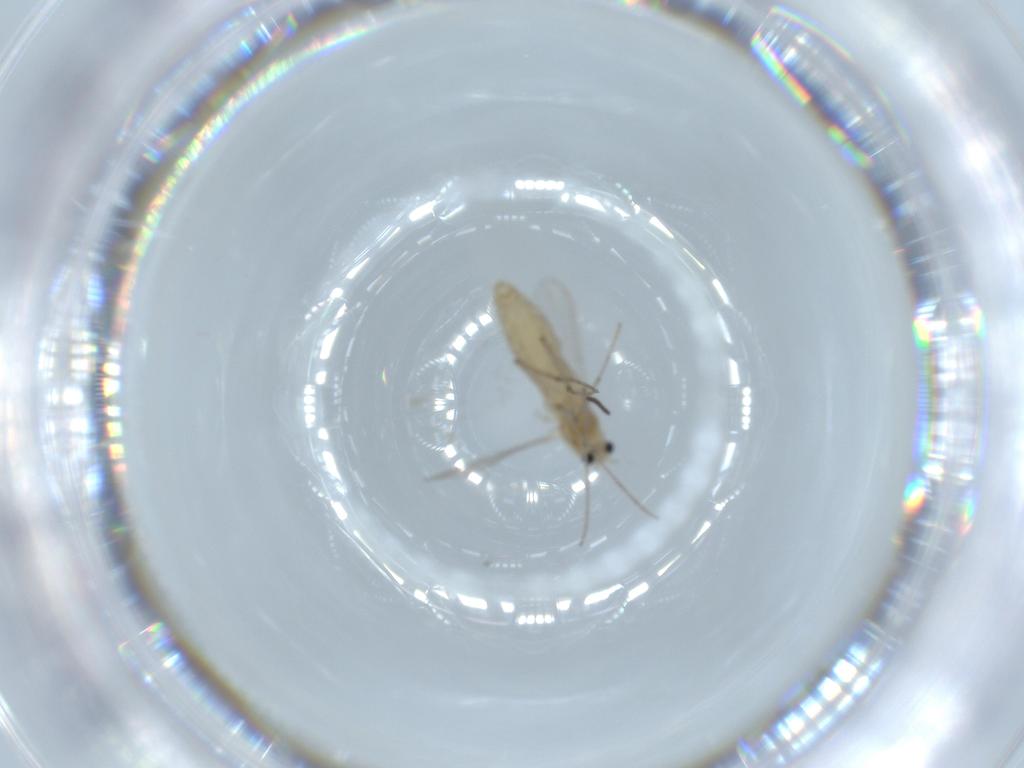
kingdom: Animalia
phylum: Arthropoda
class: Insecta
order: Diptera
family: Chironomidae
